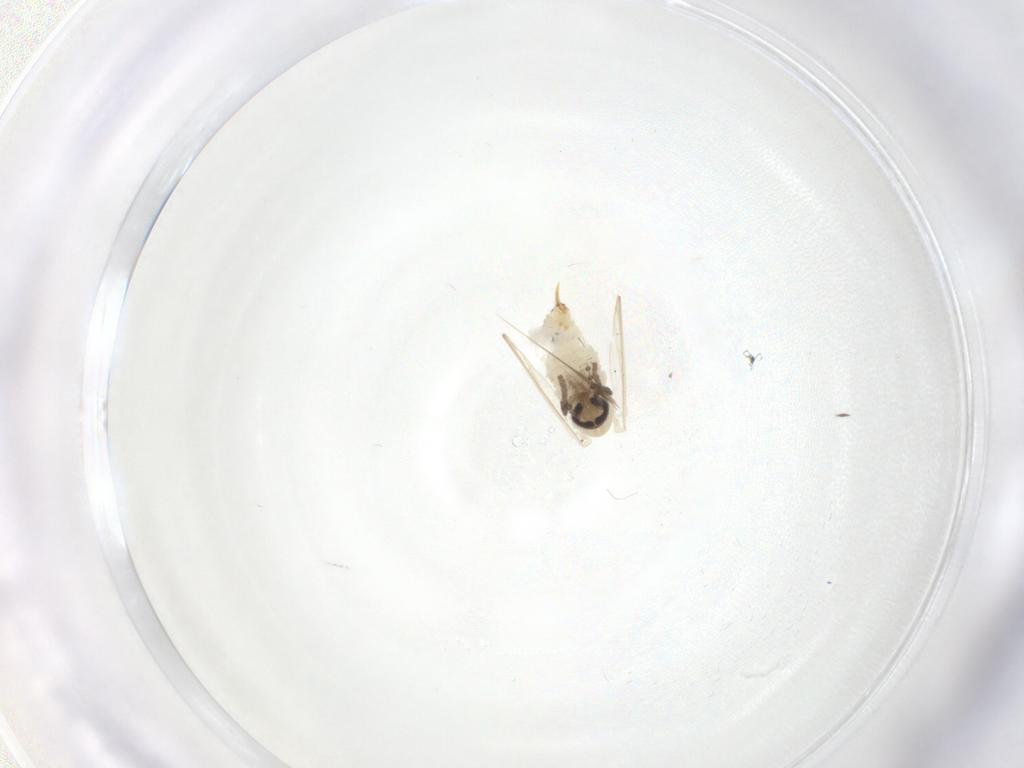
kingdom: Animalia
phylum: Arthropoda
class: Insecta
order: Diptera
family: Psychodidae
